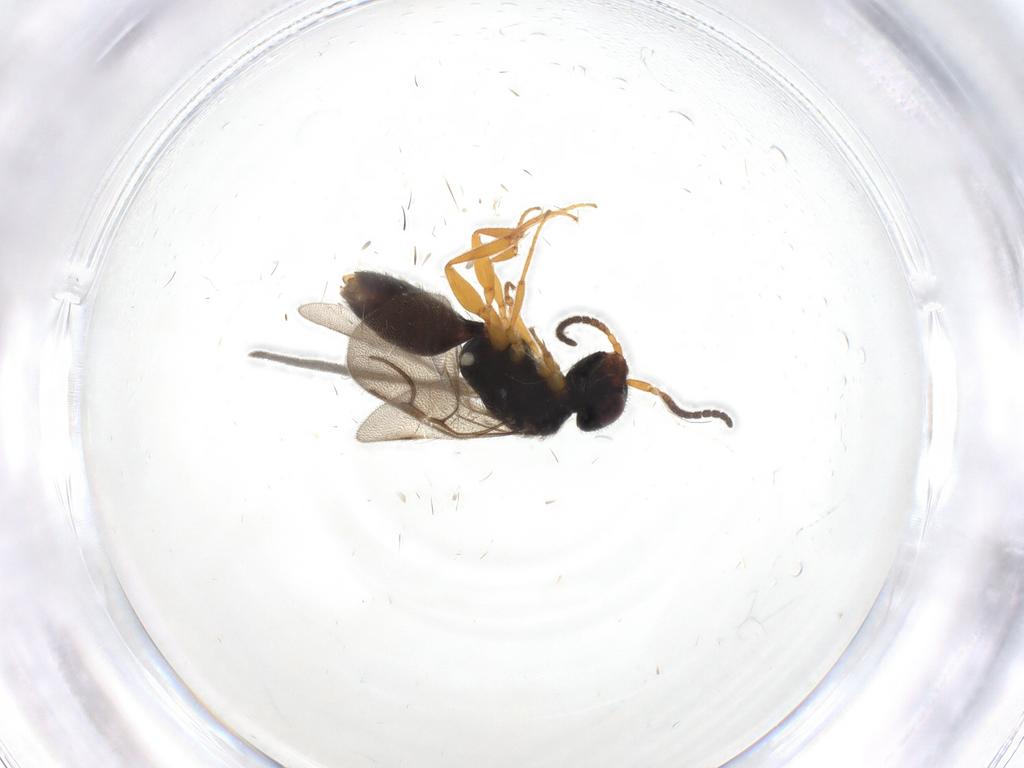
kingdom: Animalia
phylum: Arthropoda
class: Insecta
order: Hymenoptera
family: Bethylidae
